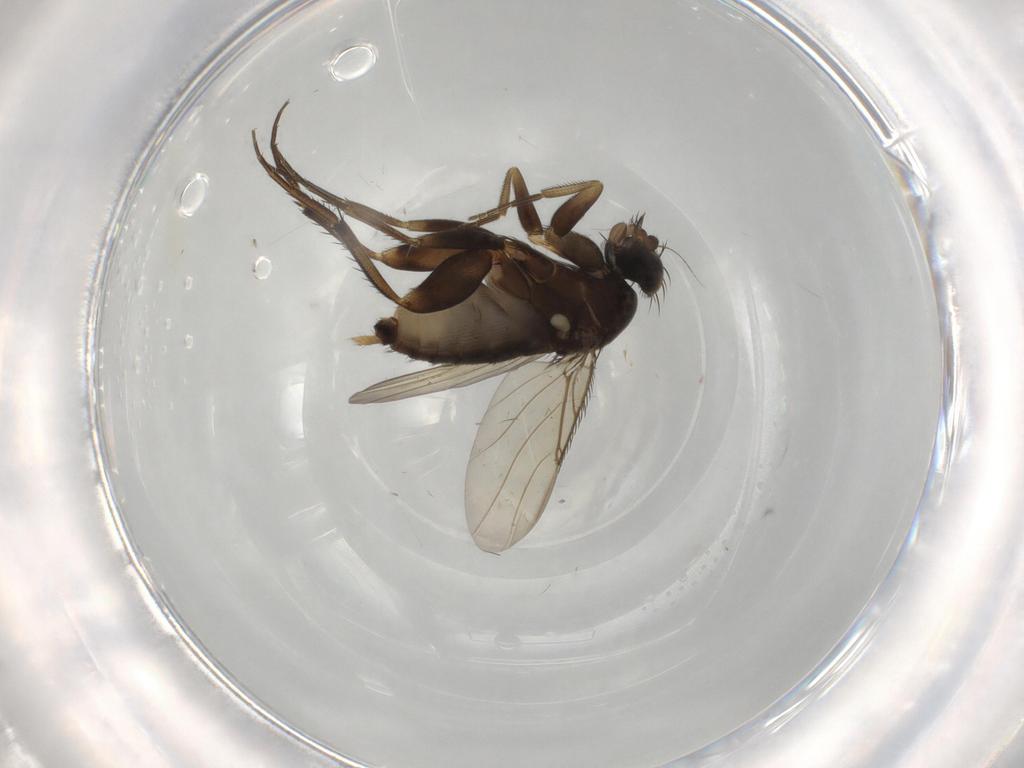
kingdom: Animalia
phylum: Arthropoda
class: Insecta
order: Diptera
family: Phoridae
